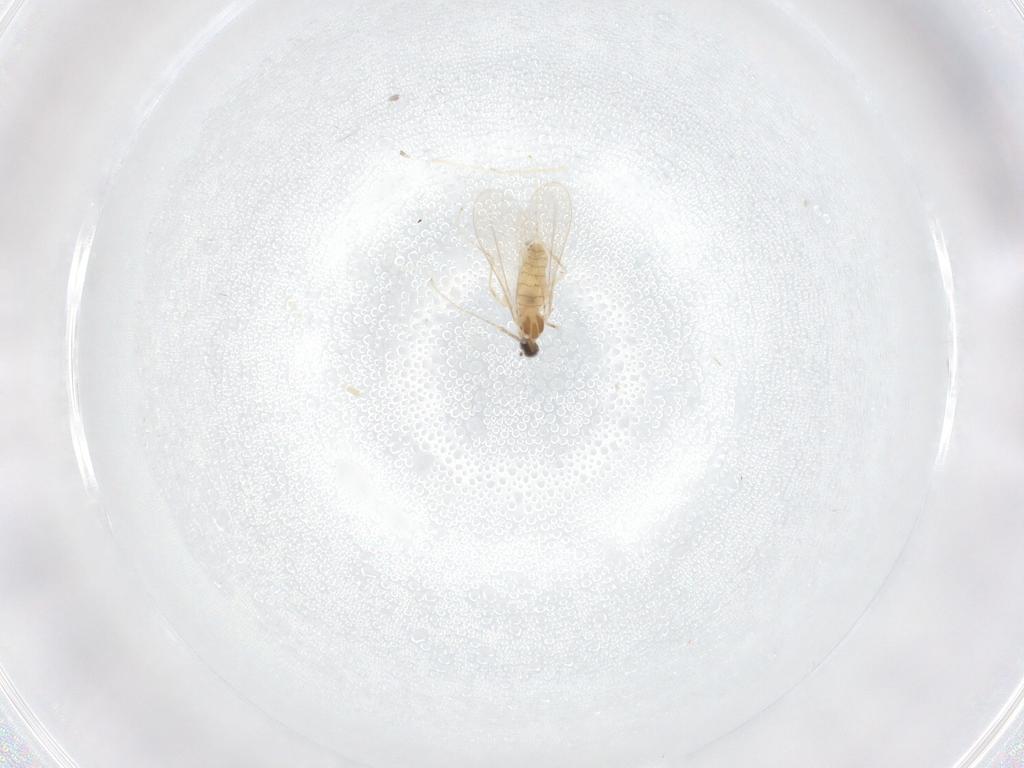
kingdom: Animalia
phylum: Arthropoda
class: Insecta
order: Diptera
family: Cecidomyiidae
